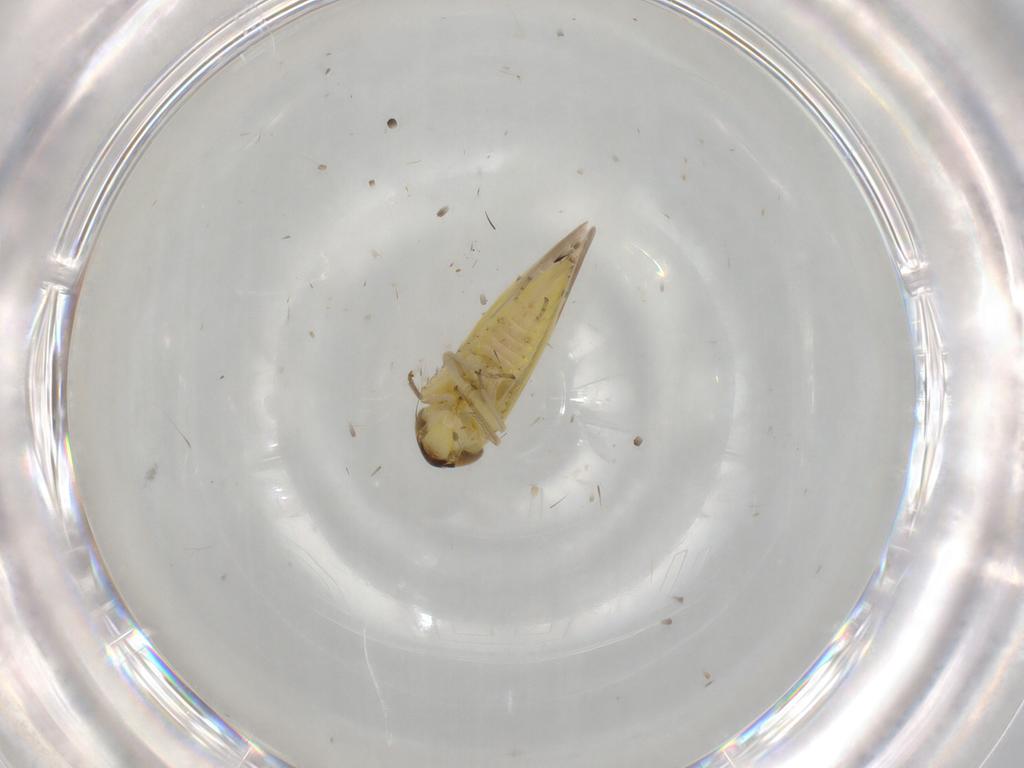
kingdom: Animalia
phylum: Arthropoda
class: Insecta
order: Hemiptera
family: Cicadellidae
